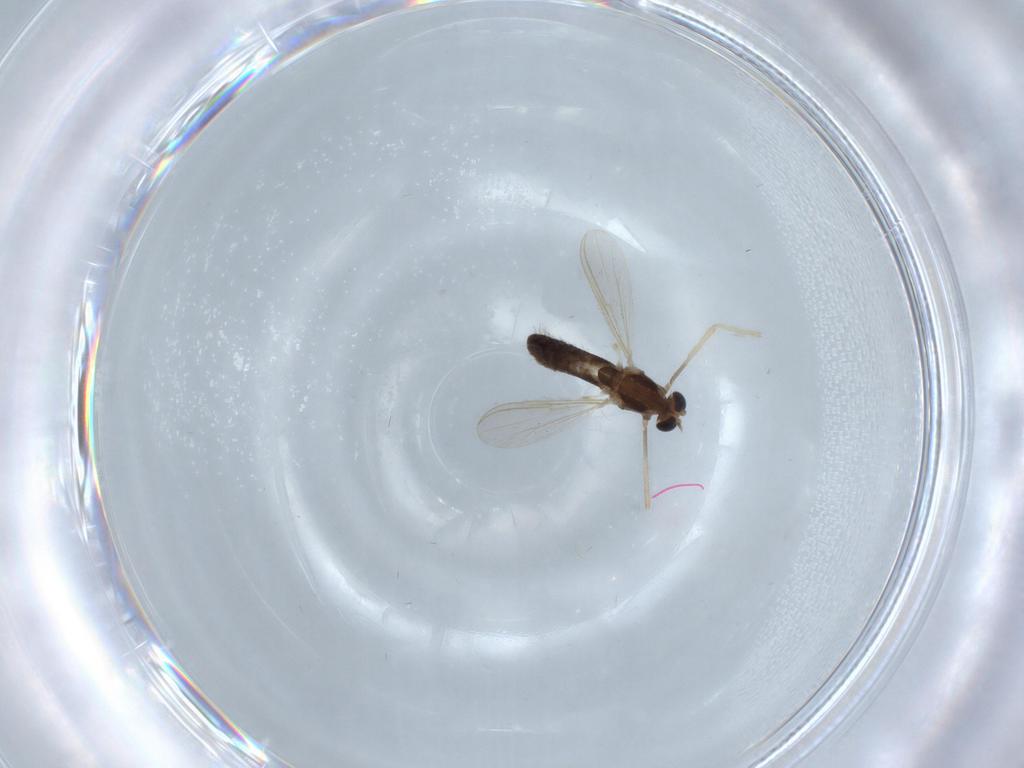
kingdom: Animalia
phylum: Arthropoda
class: Insecta
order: Diptera
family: Chironomidae
